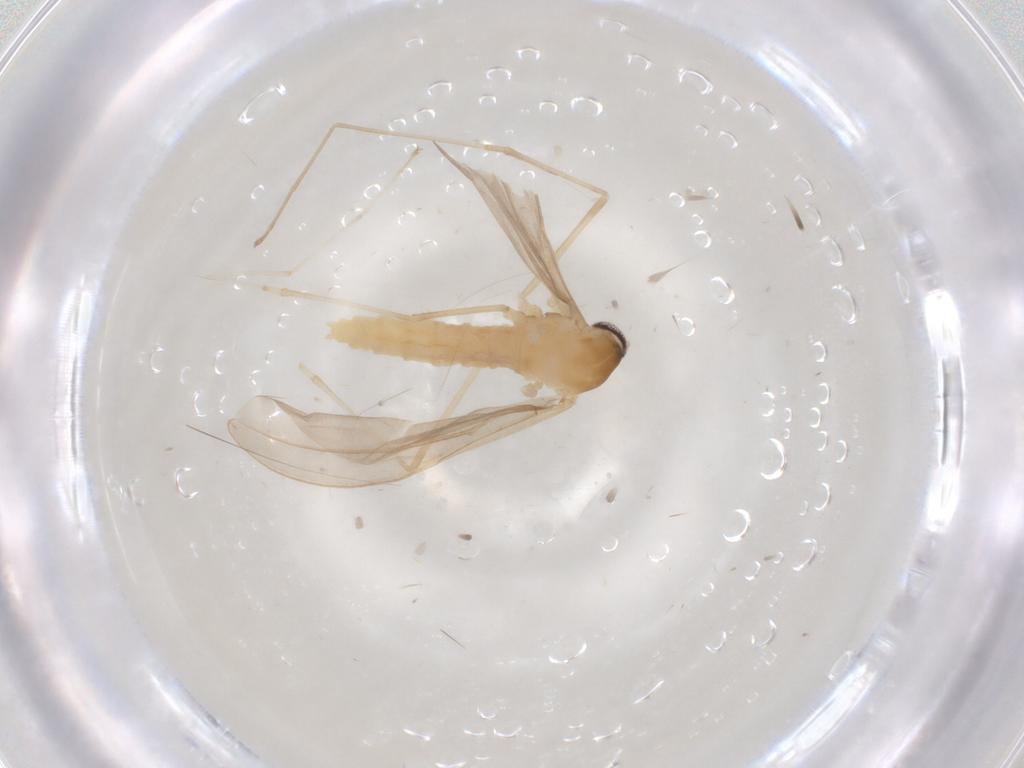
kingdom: Animalia
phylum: Arthropoda
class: Insecta
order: Diptera
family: Cecidomyiidae
